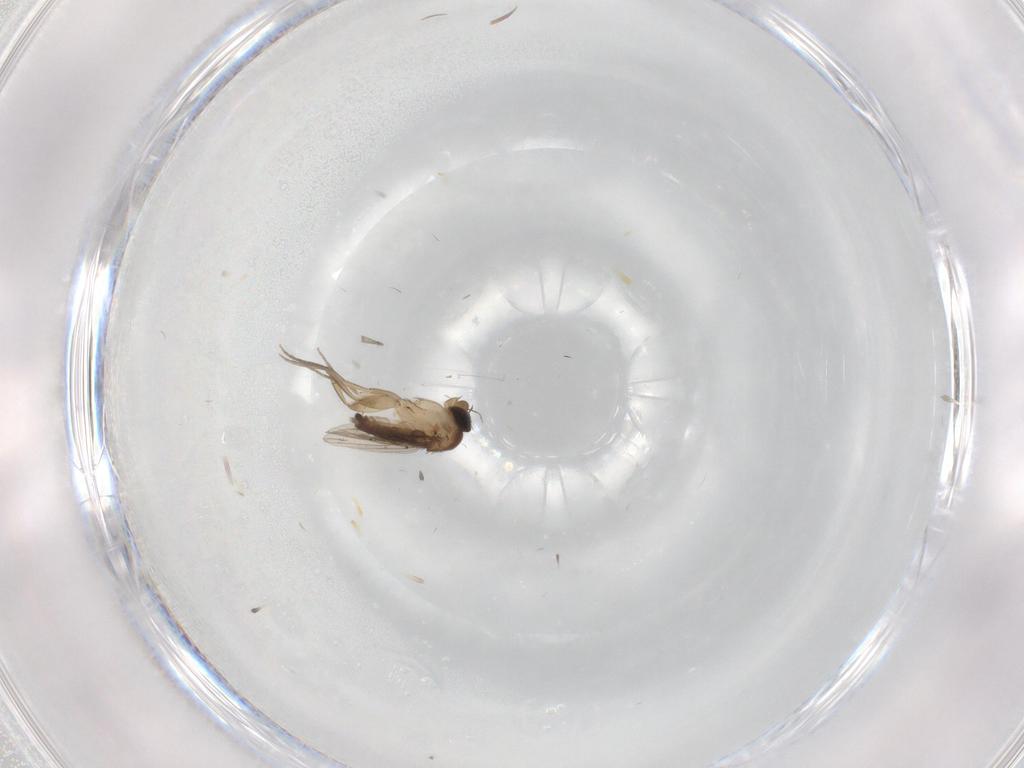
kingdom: Animalia
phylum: Arthropoda
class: Insecta
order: Diptera
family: Phoridae
